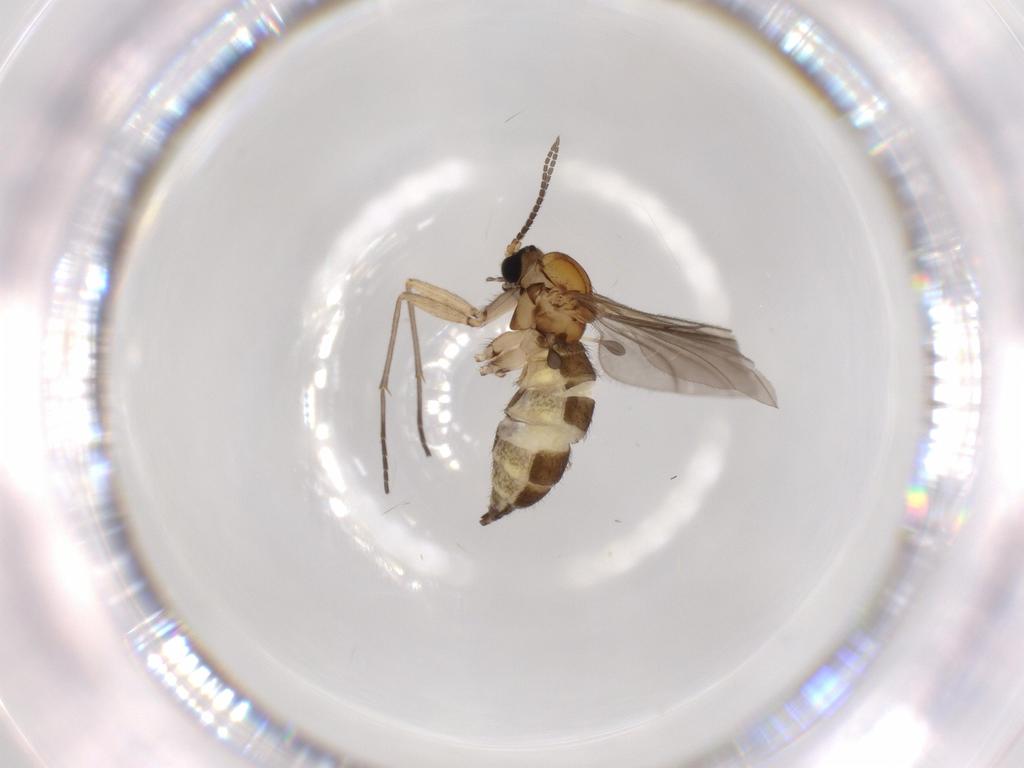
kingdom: Animalia
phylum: Arthropoda
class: Insecta
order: Diptera
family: Sciaridae
